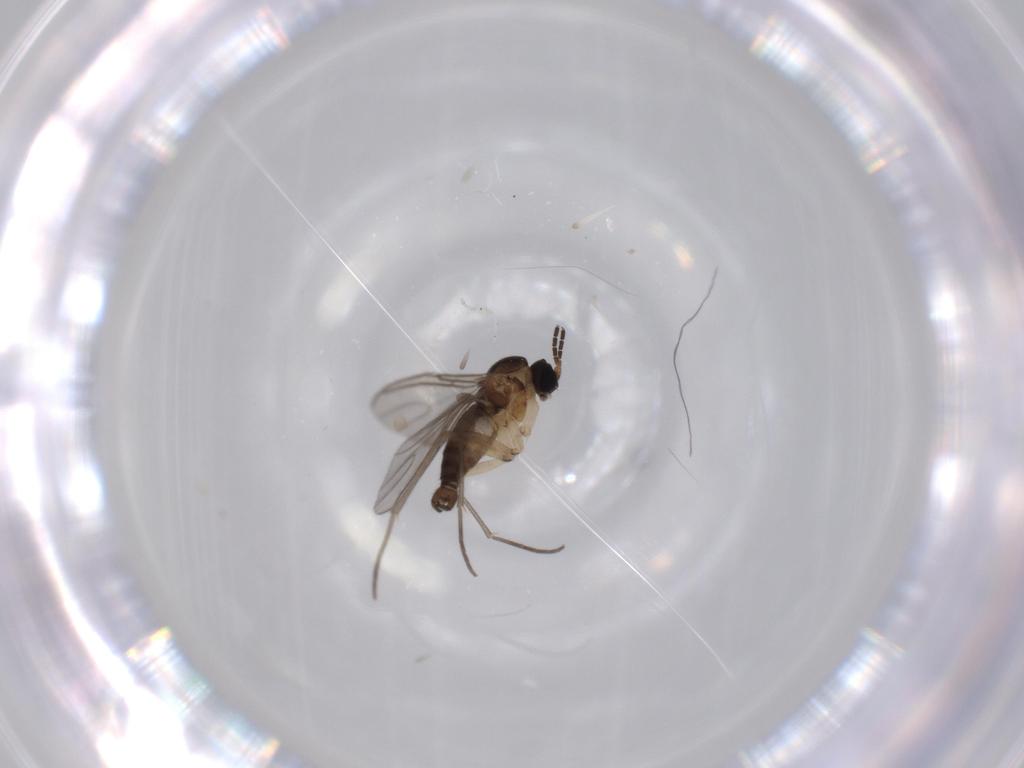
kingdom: Animalia
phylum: Arthropoda
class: Insecta
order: Diptera
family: Sciaridae
